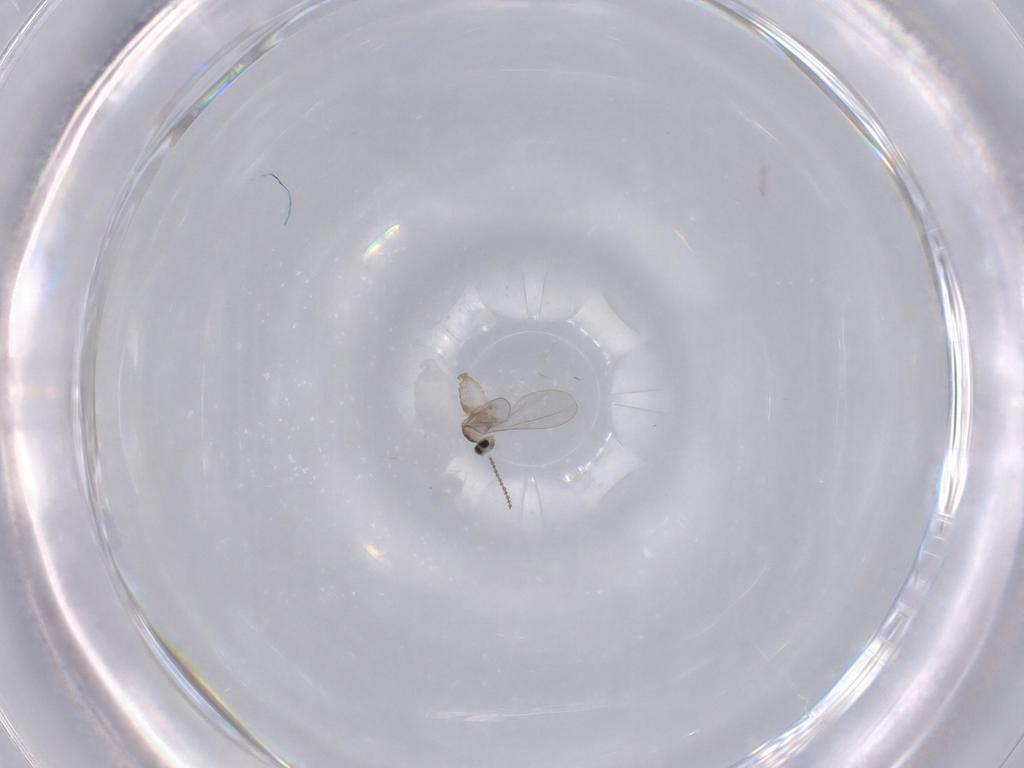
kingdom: Animalia
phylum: Arthropoda
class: Insecta
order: Diptera
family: Cecidomyiidae
